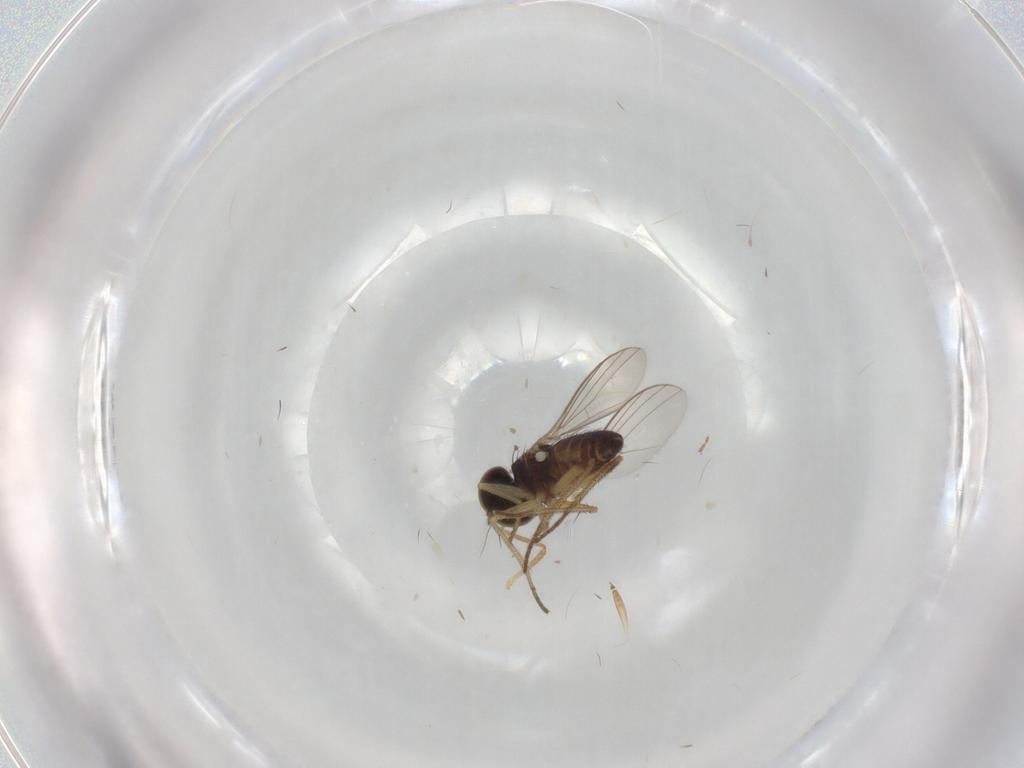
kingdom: Animalia
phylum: Arthropoda
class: Insecta
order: Diptera
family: Ceratopogonidae
